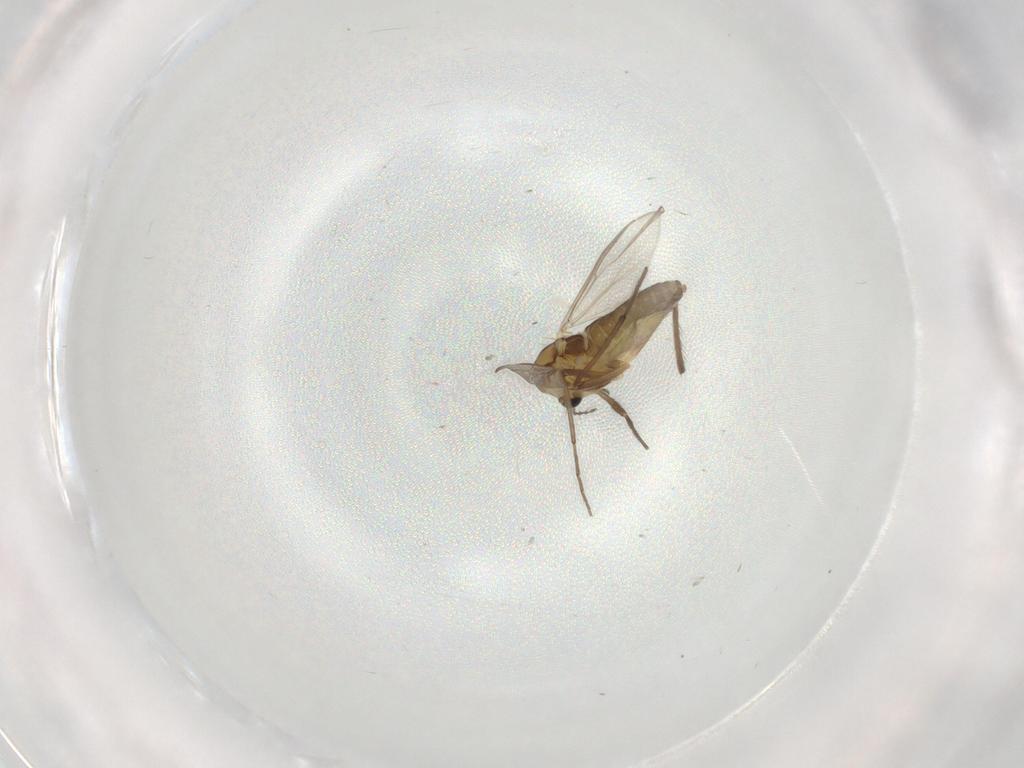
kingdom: Animalia
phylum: Arthropoda
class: Insecta
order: Diptera
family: Chironomidae
